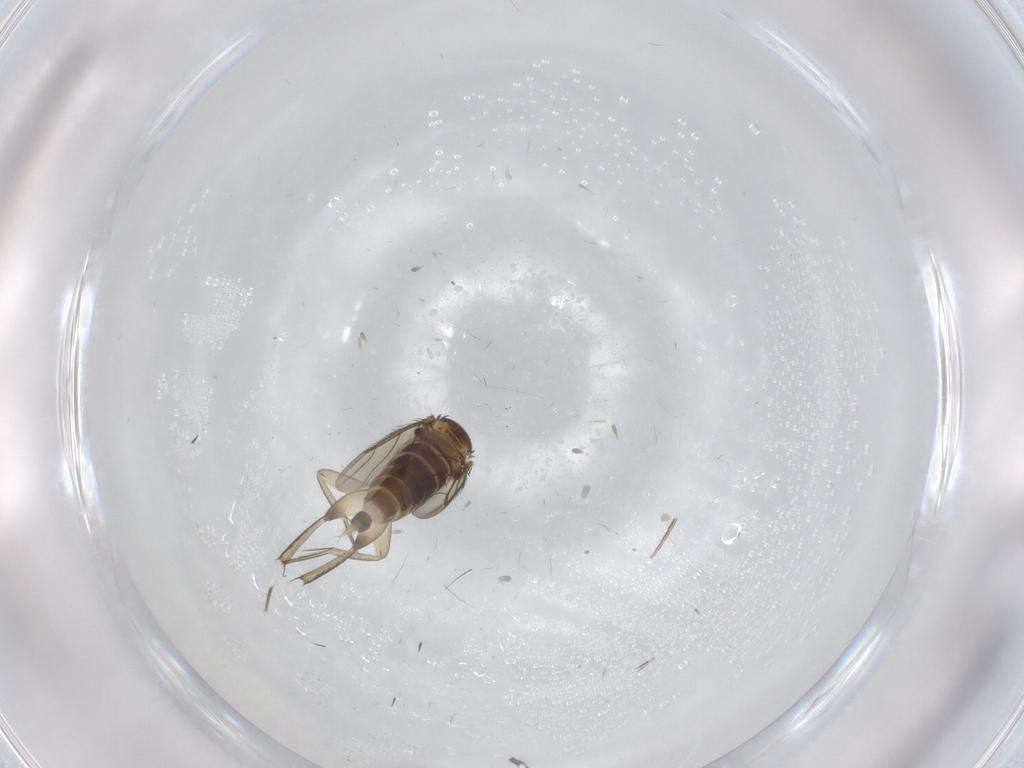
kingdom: Animalia
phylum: Arthropoda
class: Insecta
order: Diptera
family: Cecidomyiidae
